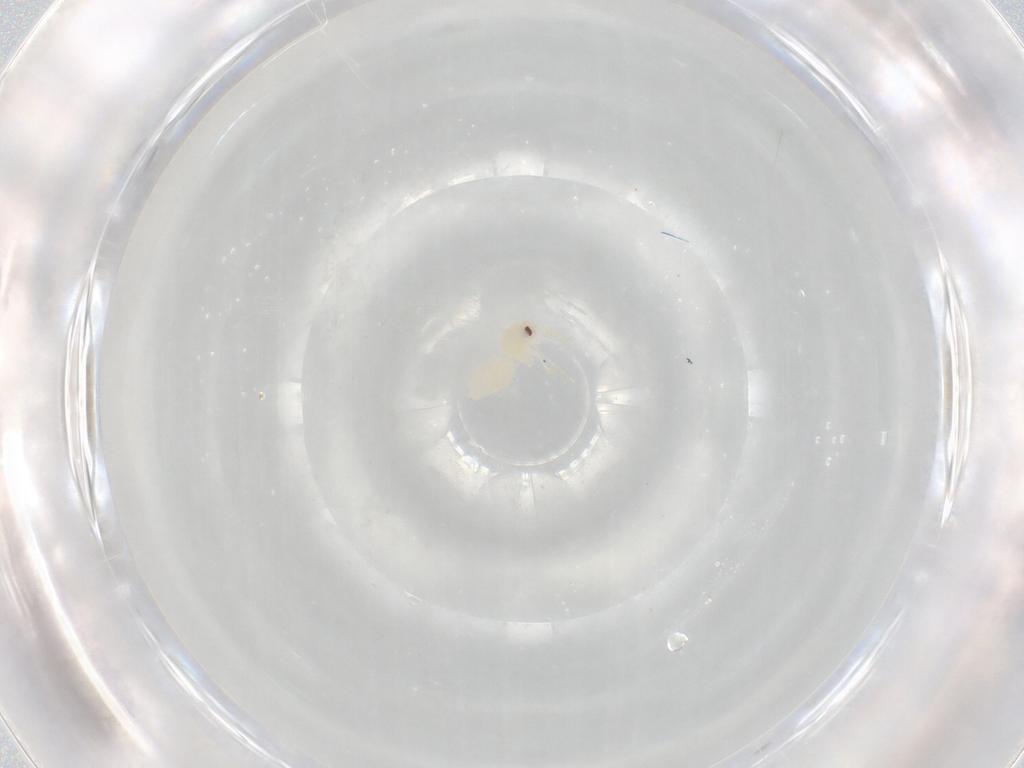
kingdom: Animalia
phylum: Arthropoda
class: Insecta
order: Hemiptera
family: Aleyrodidae
